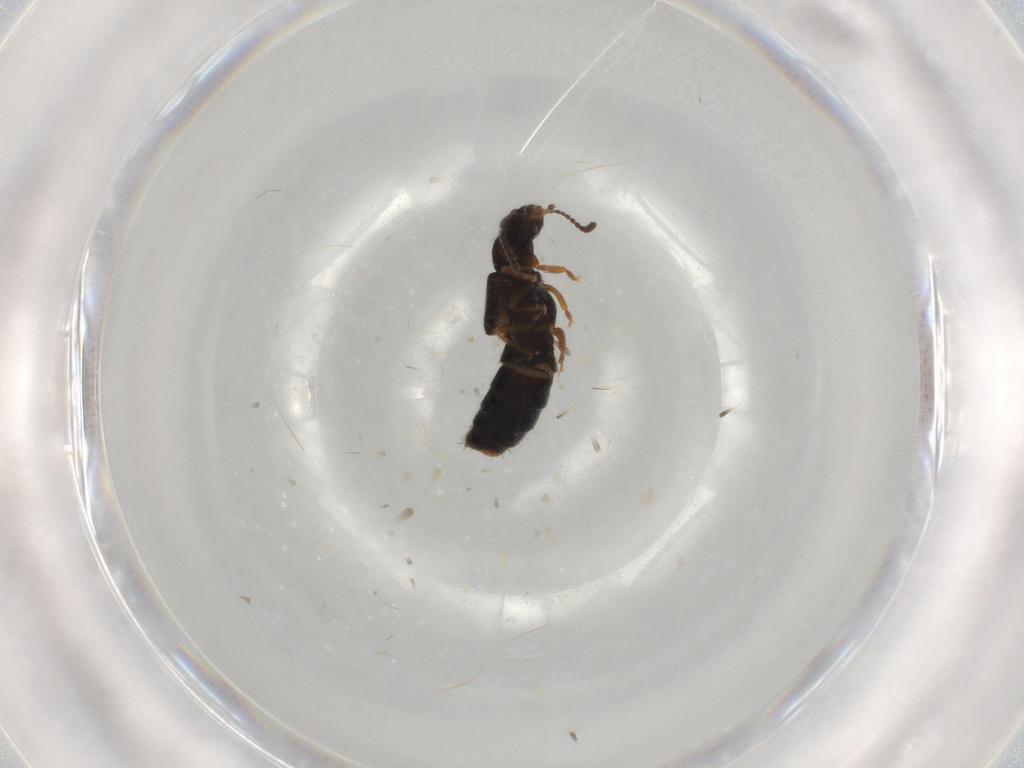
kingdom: Animalia
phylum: Arthropoda
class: Insecta
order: Coleoptera
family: Staphylinidae
